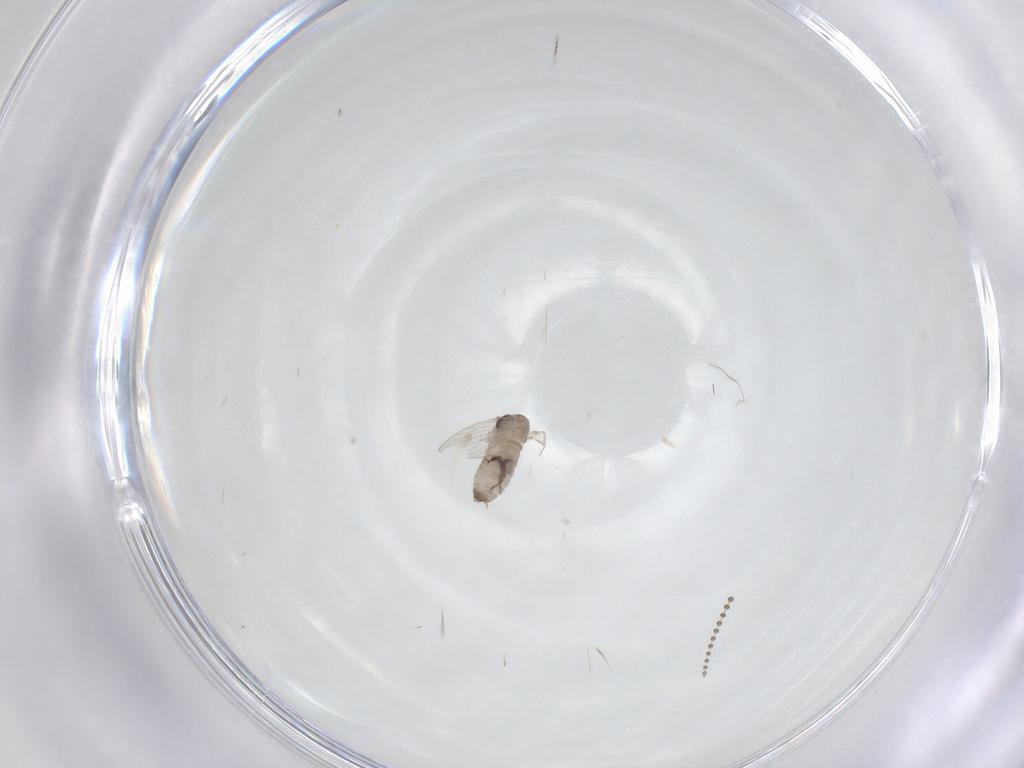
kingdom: Animalia
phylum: Arthropoda
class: Insecta
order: Diptera
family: Psychodidae
